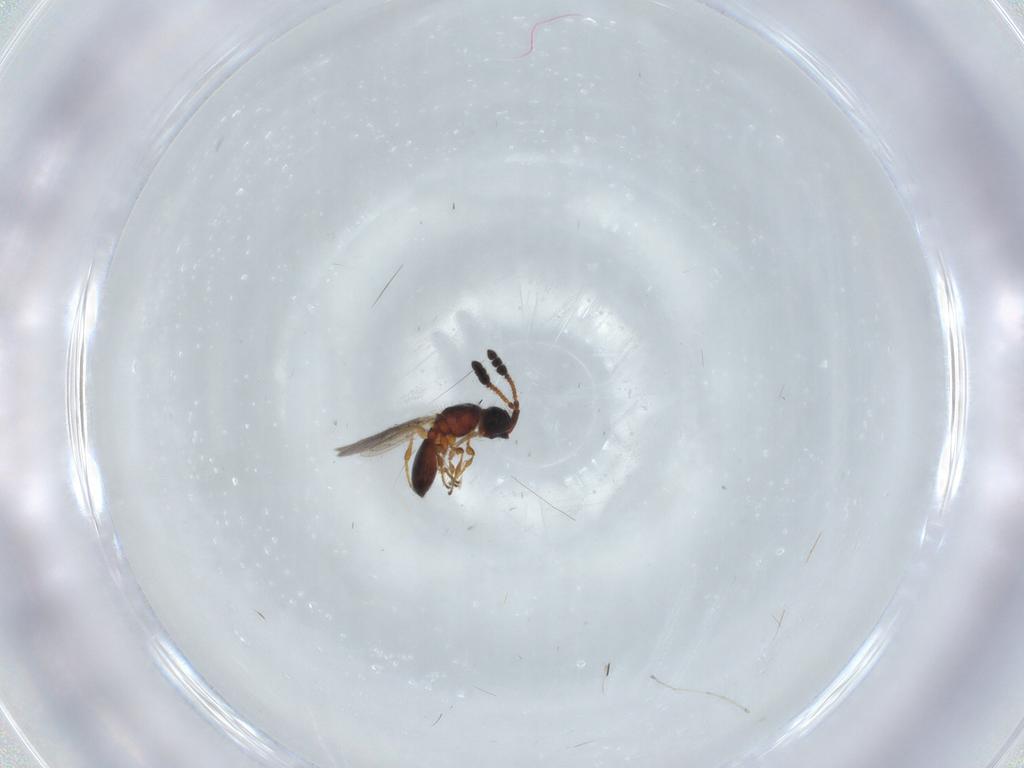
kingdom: Animalia
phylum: Arthropoda
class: Insecta
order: Hymenoptera
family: Diapriidae
